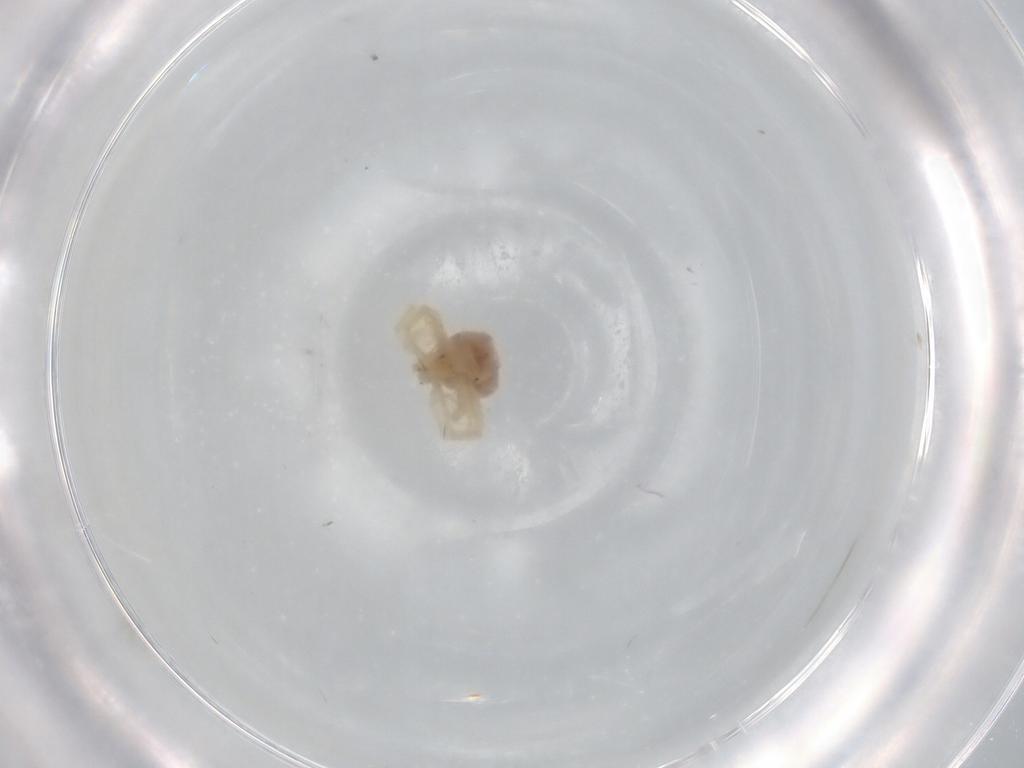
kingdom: Animalia
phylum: Arthropoda
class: Arachnida
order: Trombidiformes
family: Anystidae
